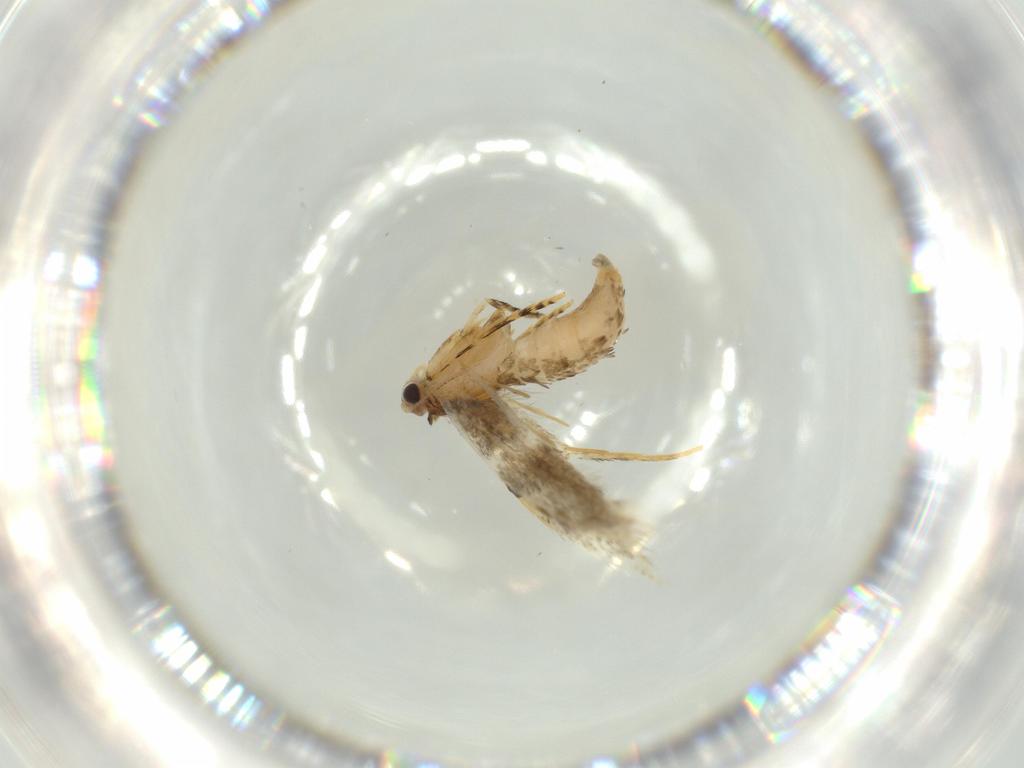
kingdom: Animalia
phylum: Arthropoda
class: Insecta
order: Lepidoptera
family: Tineidae
